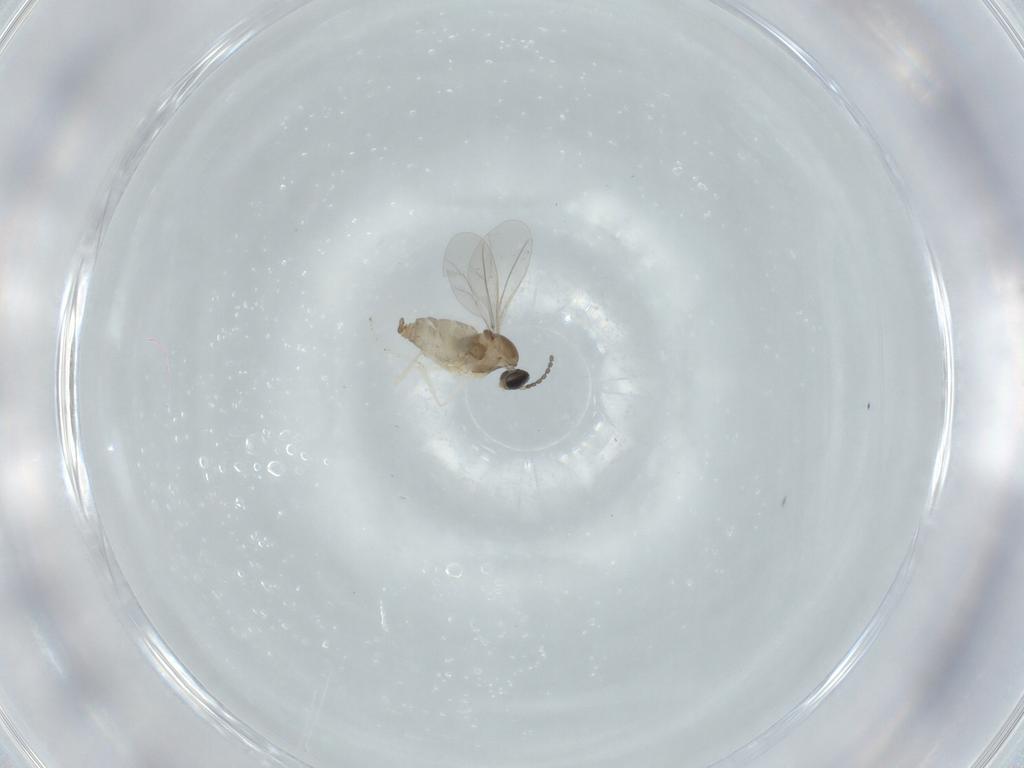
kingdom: Animalia
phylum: Arthropoda
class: Insecta
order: Diptera
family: Cecidomyiidae
